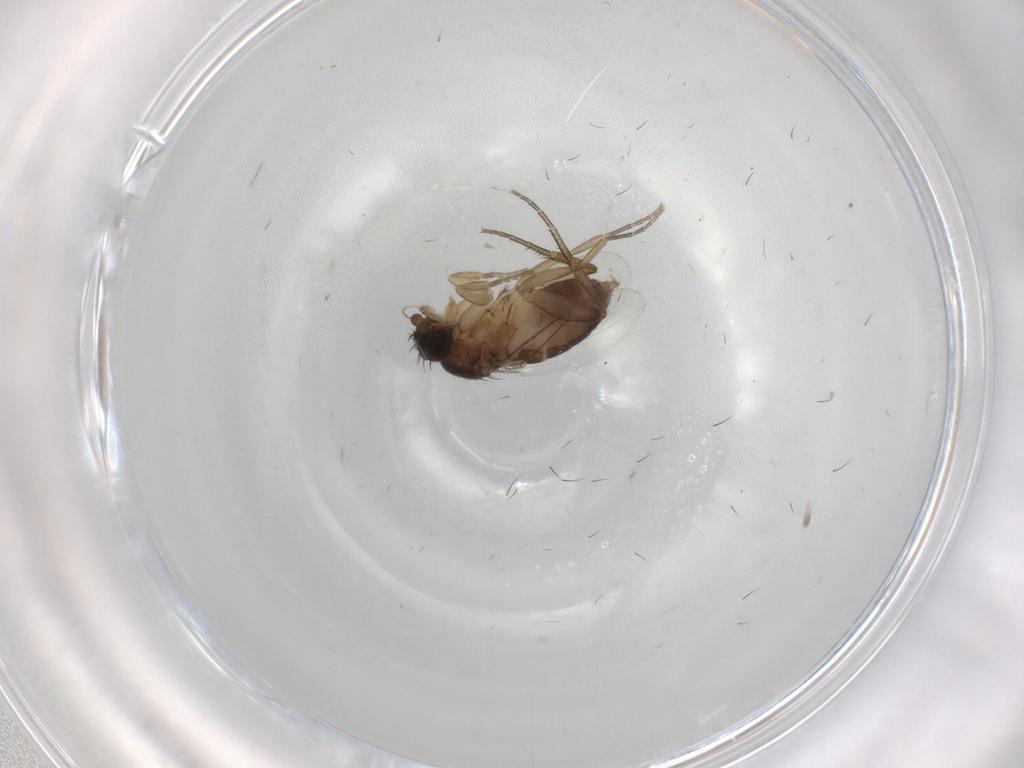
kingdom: Animalia
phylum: Arthropoda
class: Insecta
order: Diptera
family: Phoridae
